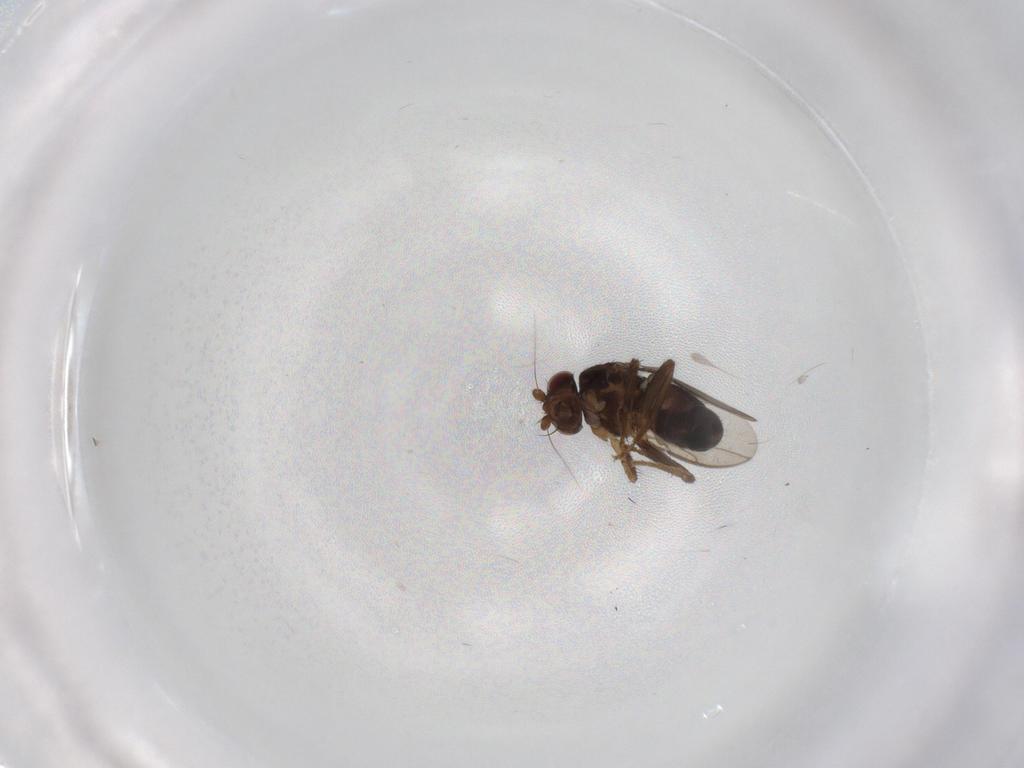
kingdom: Animalia
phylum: Arthropoda
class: Insecta
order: Diptera
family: Sphaeroceridae
